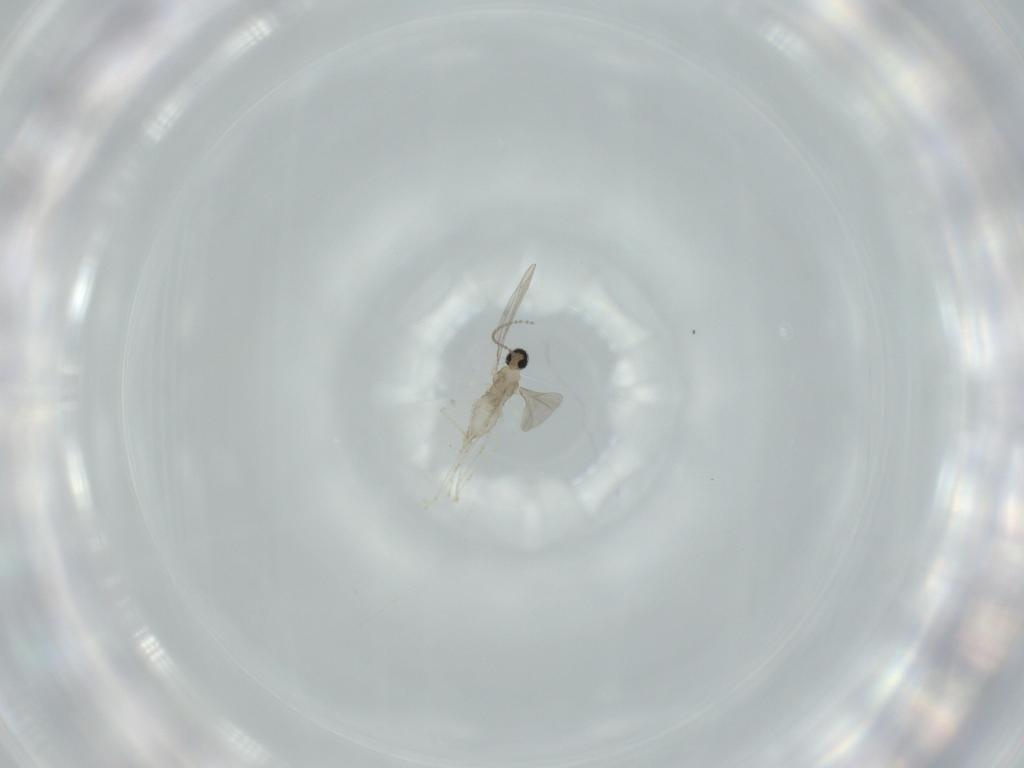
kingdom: Animalia
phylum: Arthropoda
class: Insecta
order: Diptera
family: Cecidomyiidae
